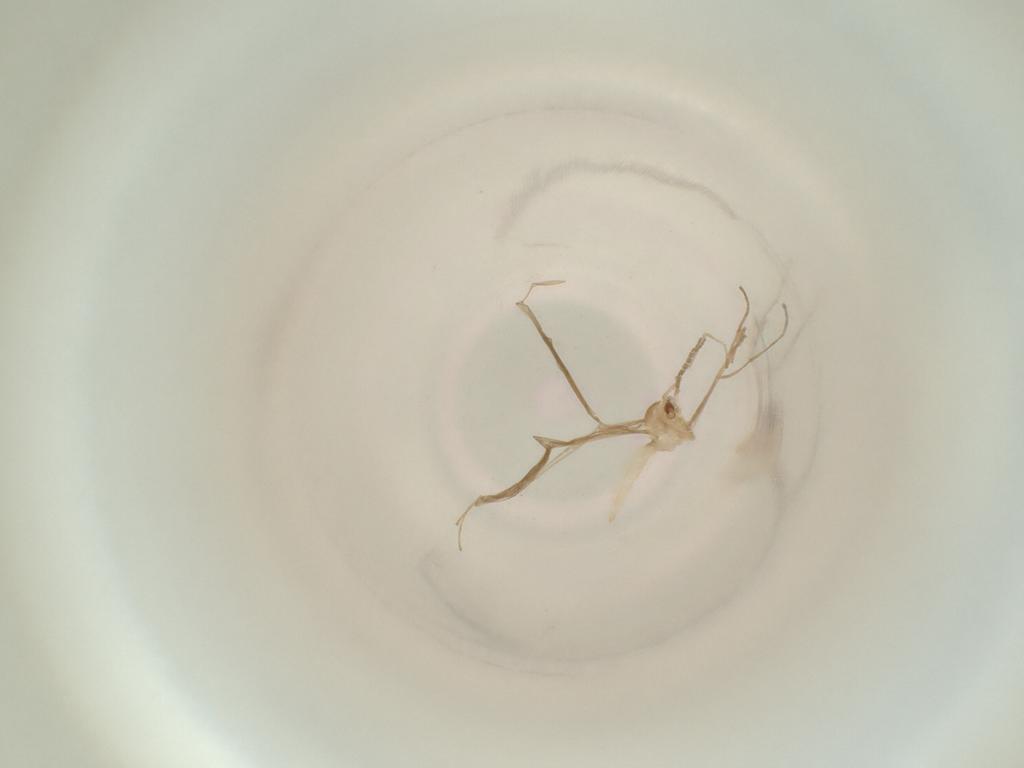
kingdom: Animalia
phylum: Arthropoda
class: Insecta
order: Diptera
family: Cecidomyiidae
